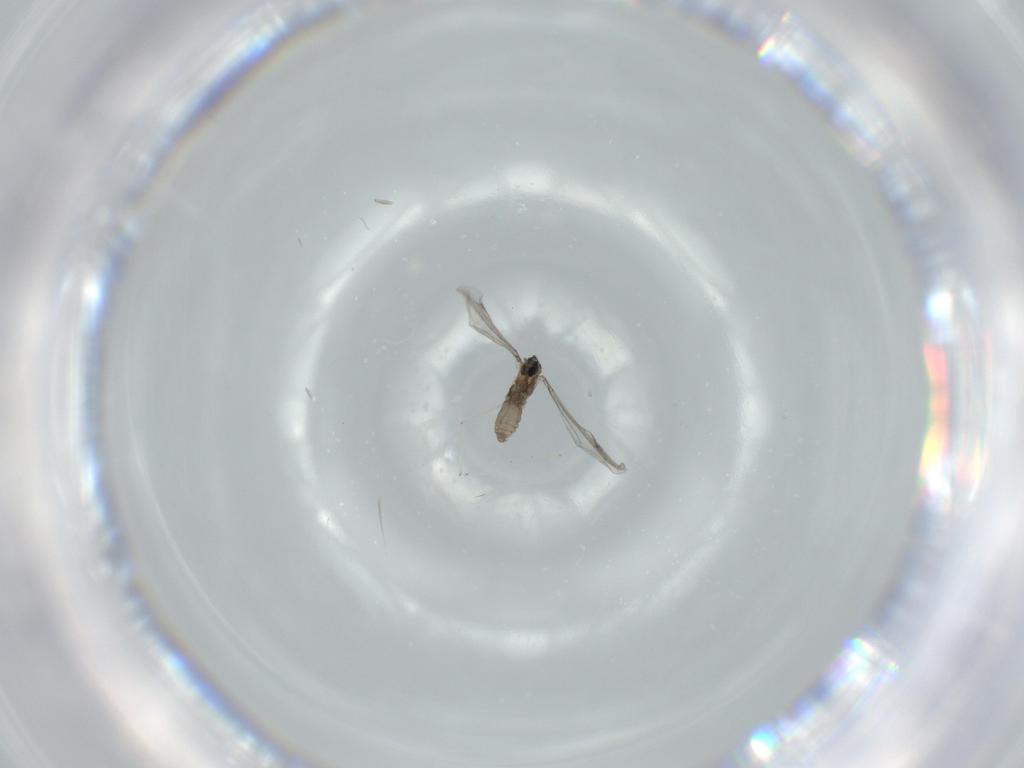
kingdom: Animalia
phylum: Arthropoda
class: Insecta
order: Diptera
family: Cecidomyiidae
